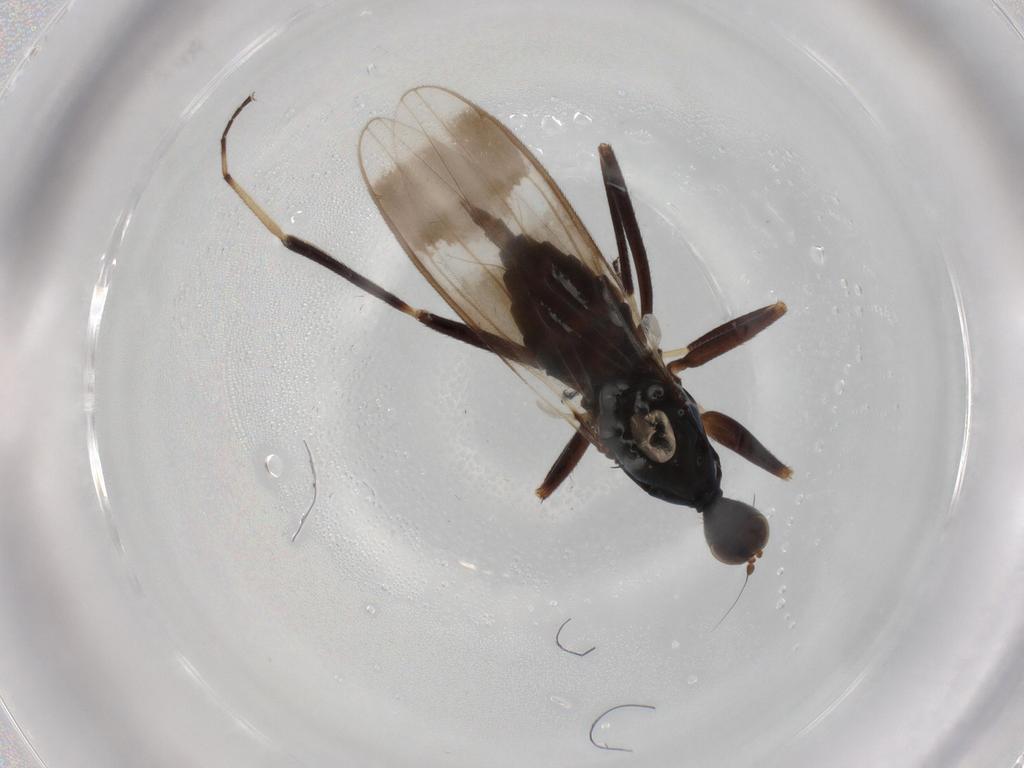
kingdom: Animalia
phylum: Arthropoda
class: Insecta
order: Diptera
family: Hybotidae
